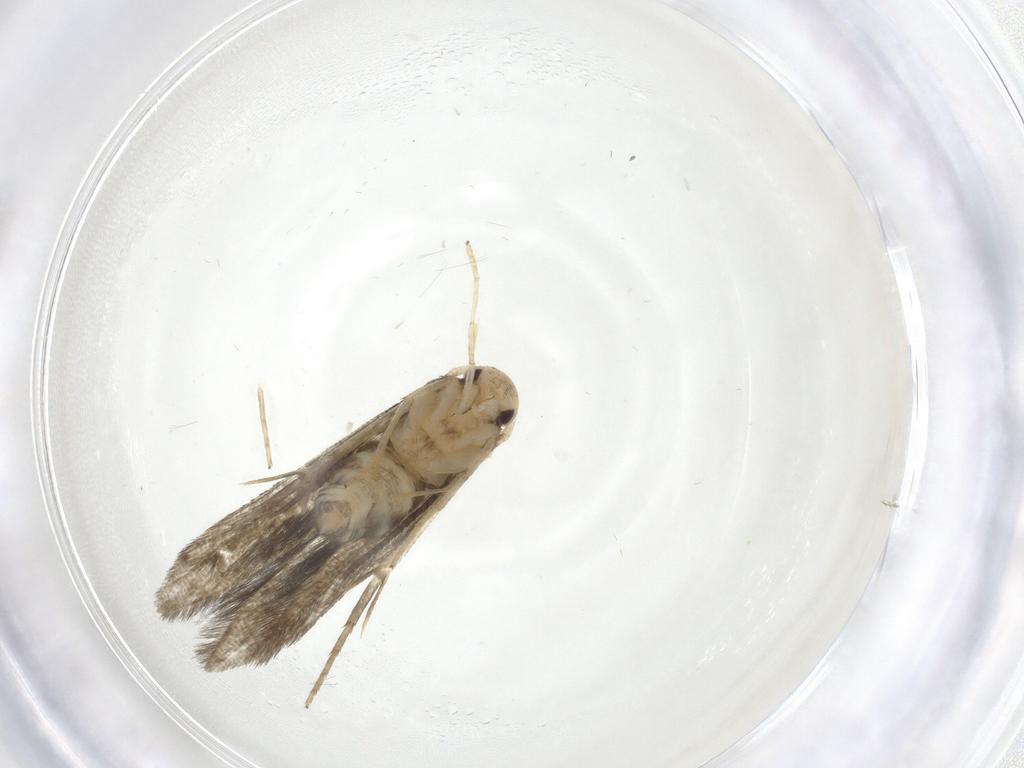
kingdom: Animalia
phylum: Arthropoda
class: Insecta
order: Lepidoptera
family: Stathmopodidae
